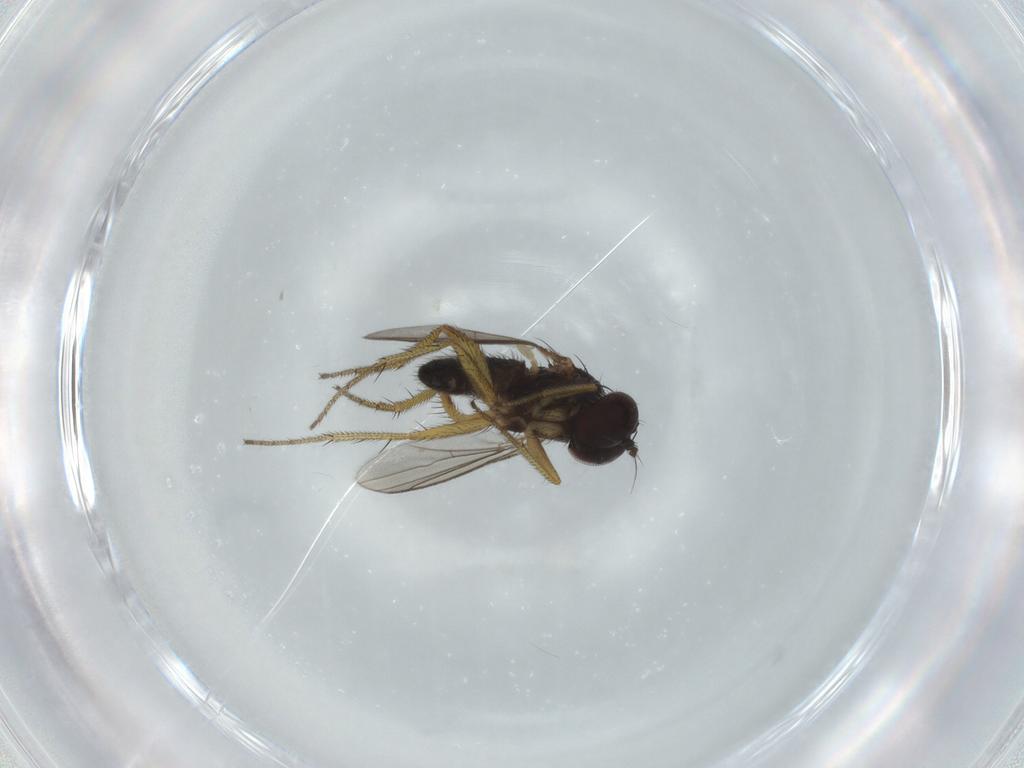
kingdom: Animalia
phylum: Arthropoda
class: Insecta
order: Diptera
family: Dolichopodidae
